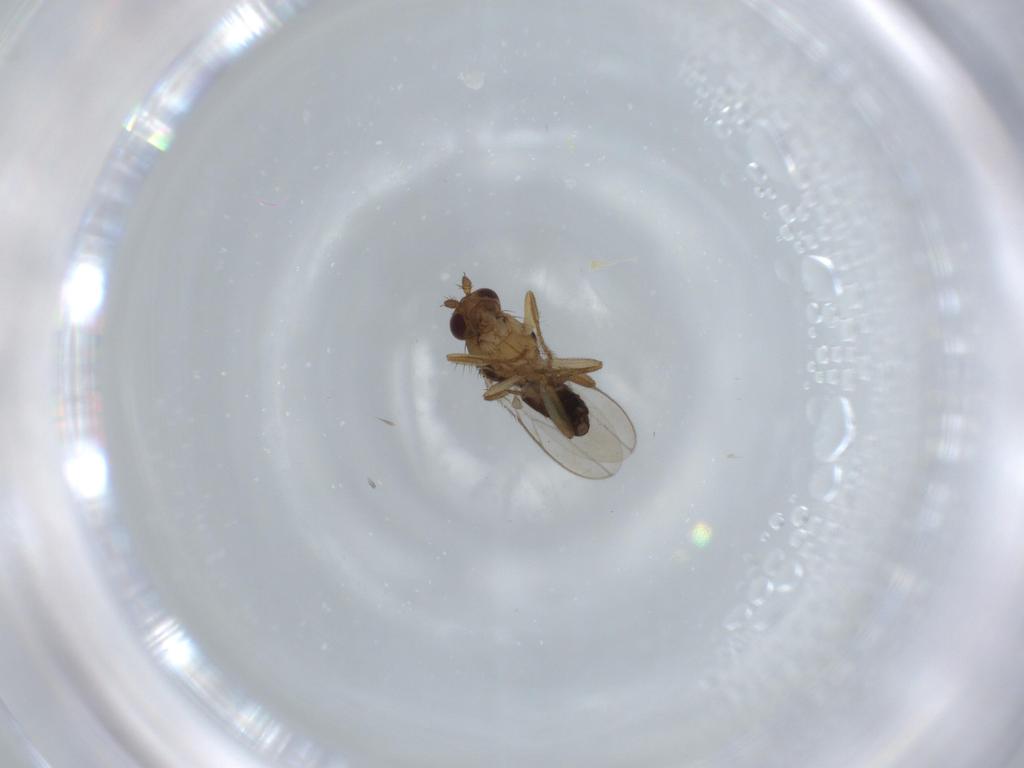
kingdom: Animalia
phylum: Arthropoda
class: Insecta
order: Diptera
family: Sphaeroceridae
